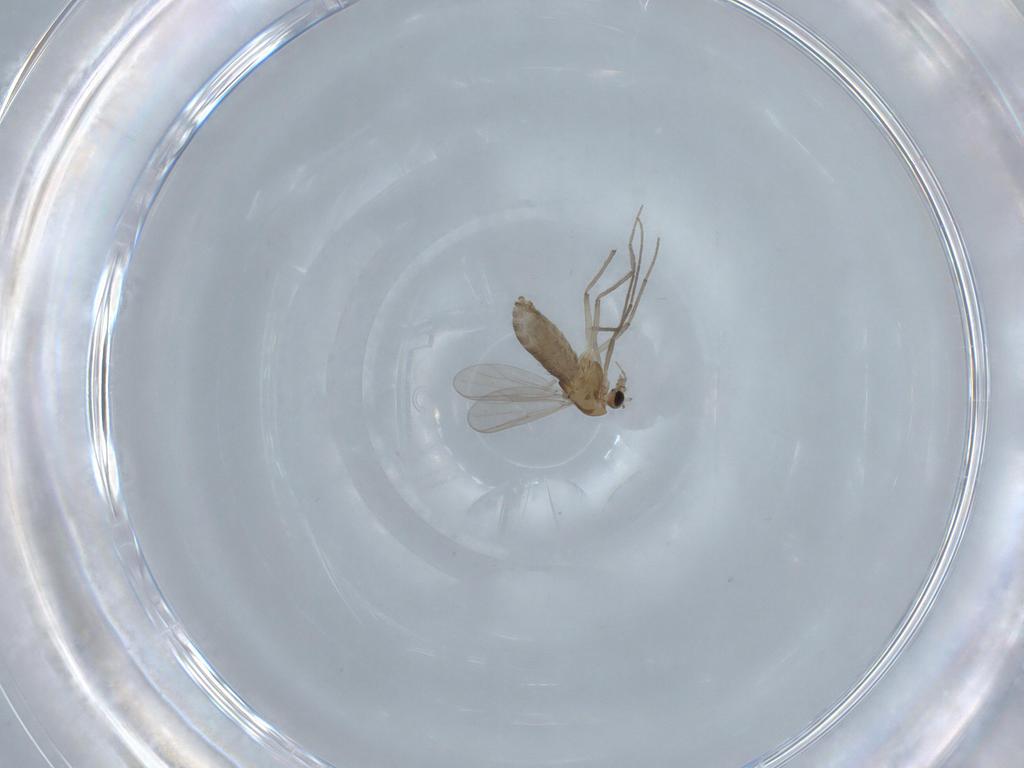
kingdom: Animalia
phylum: Arthropoda
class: Insecta
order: Diptera
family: Chironomidae
